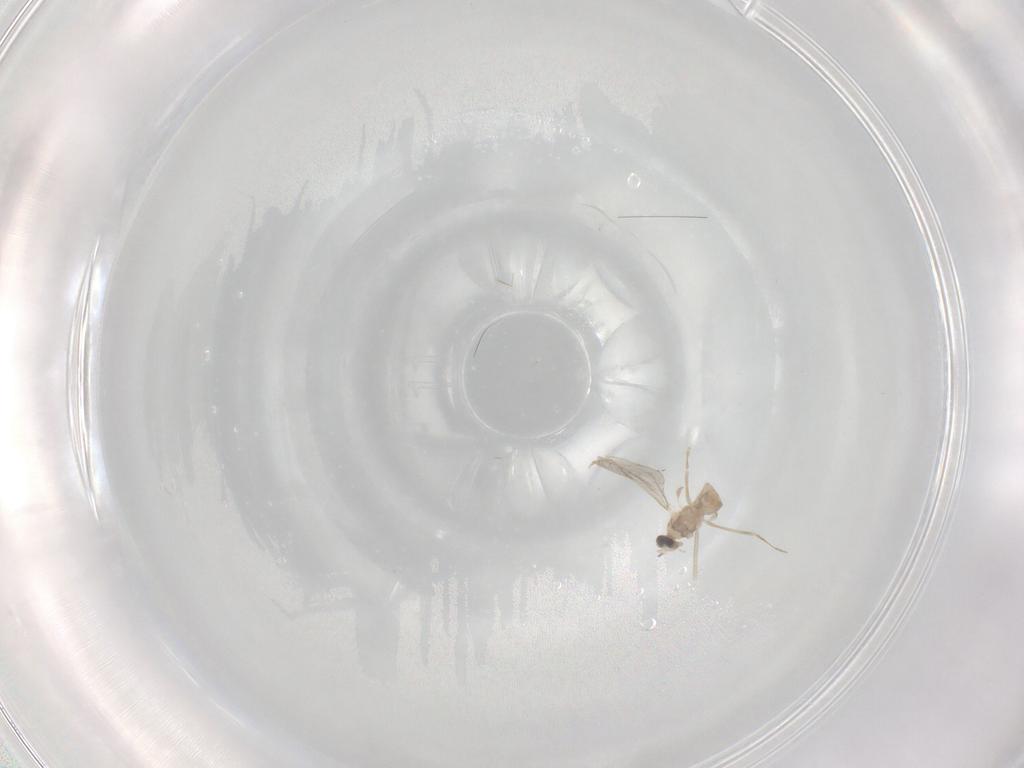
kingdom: Animalia
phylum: Arthropoda
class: Insecta
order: Diptera
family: Cecidomyiidae
